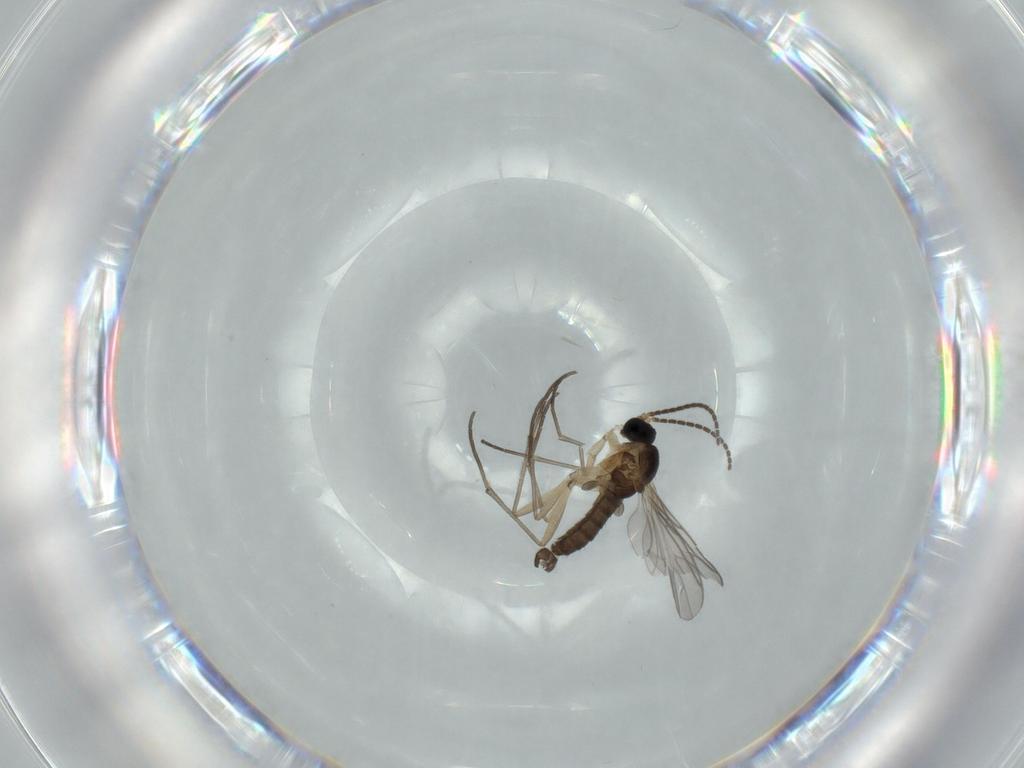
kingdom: Animalia
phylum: Arthropoda
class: Insecta
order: Diptera
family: Sciaridae
